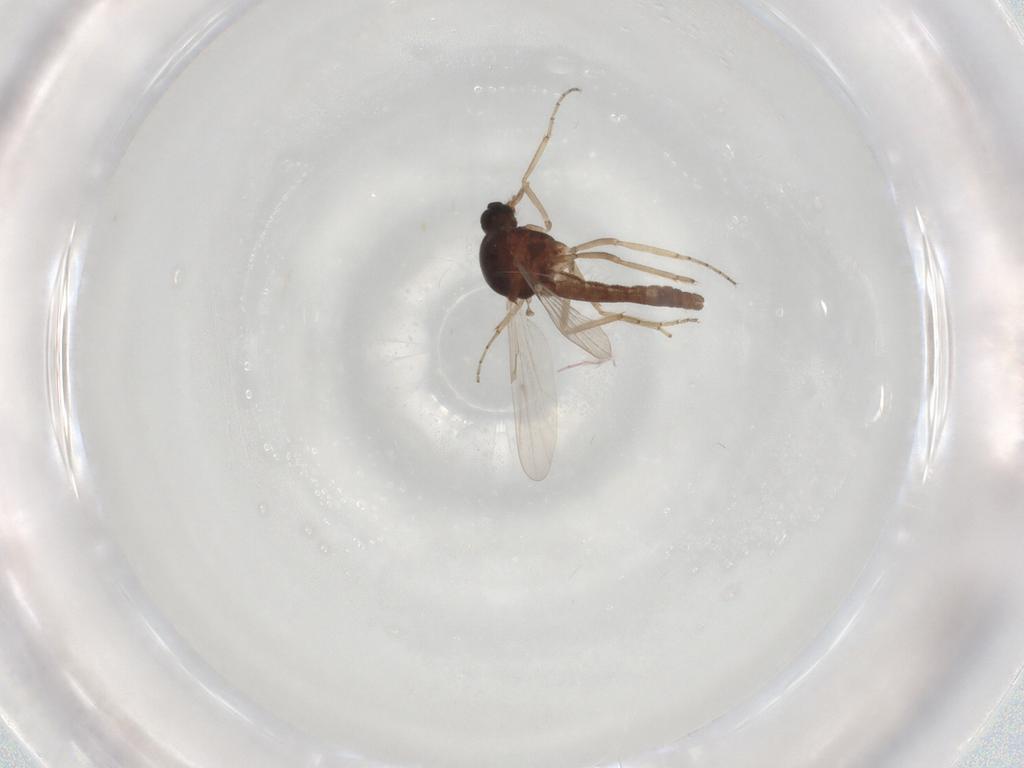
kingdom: Animalia
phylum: Arthropoda
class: Insecta
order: Diptera
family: Ceratopogonidae
